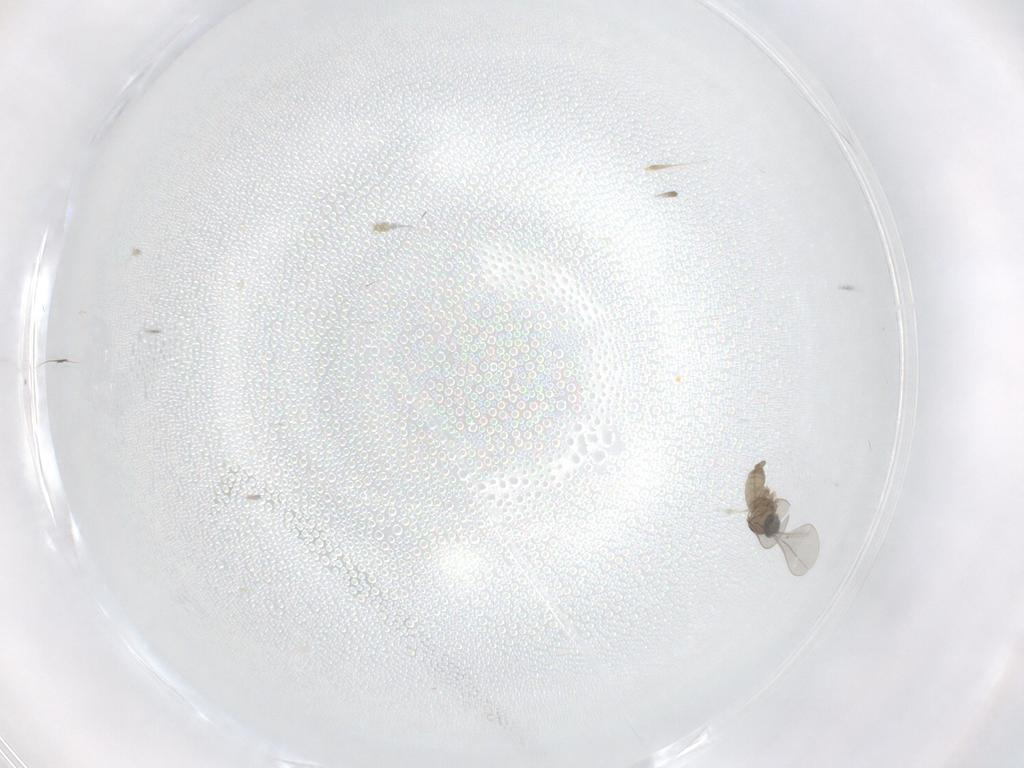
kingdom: Animalia
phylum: Arthropoda
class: Insecta
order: Diptera
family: Cecidomyiidae
